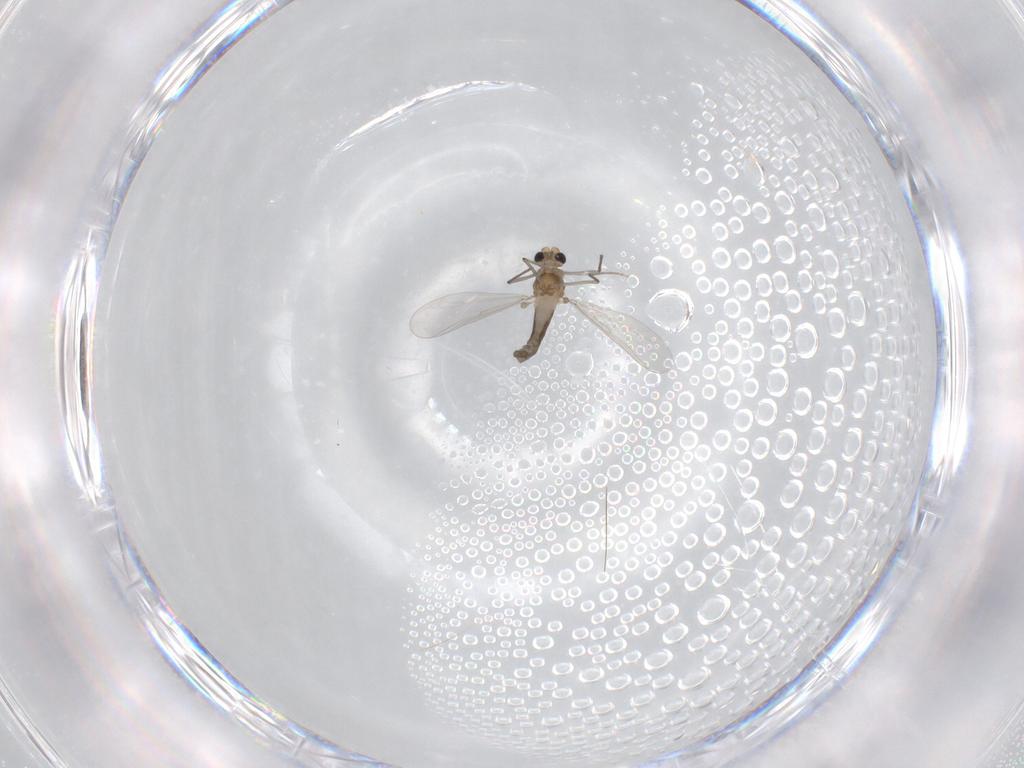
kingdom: Animalia
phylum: Arthropoda
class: Insecta
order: Diptera
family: Chironomidae
